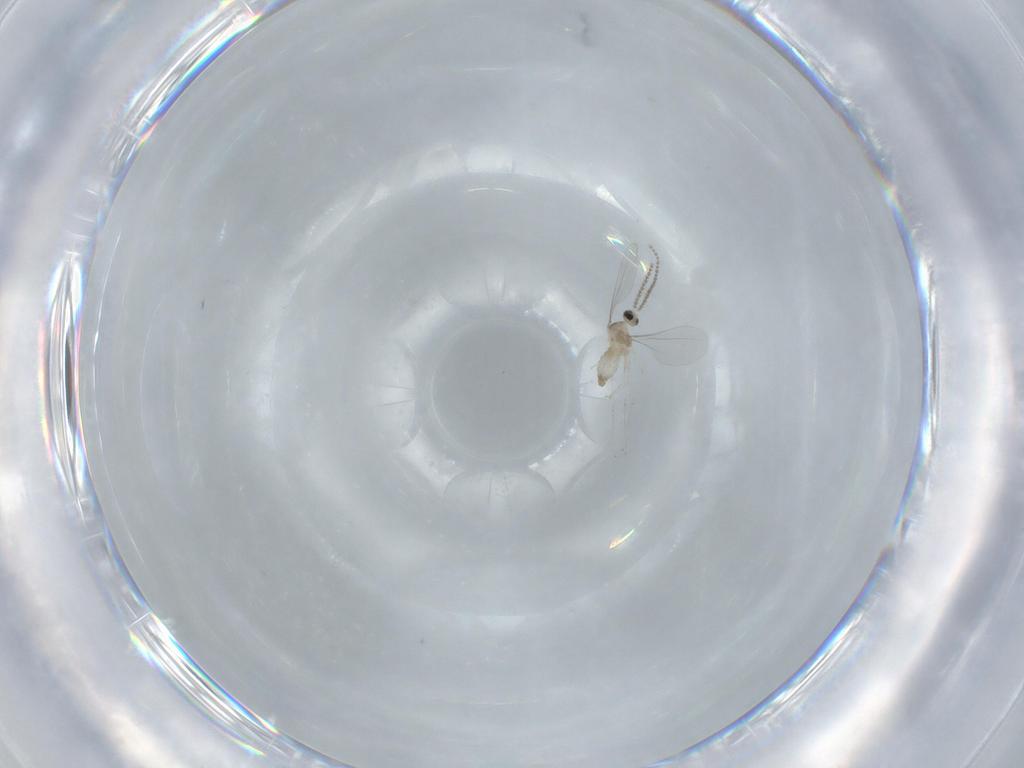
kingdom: Animalia
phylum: Arthropoda
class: Insecta
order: Diptera
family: Cecidomyiidae
